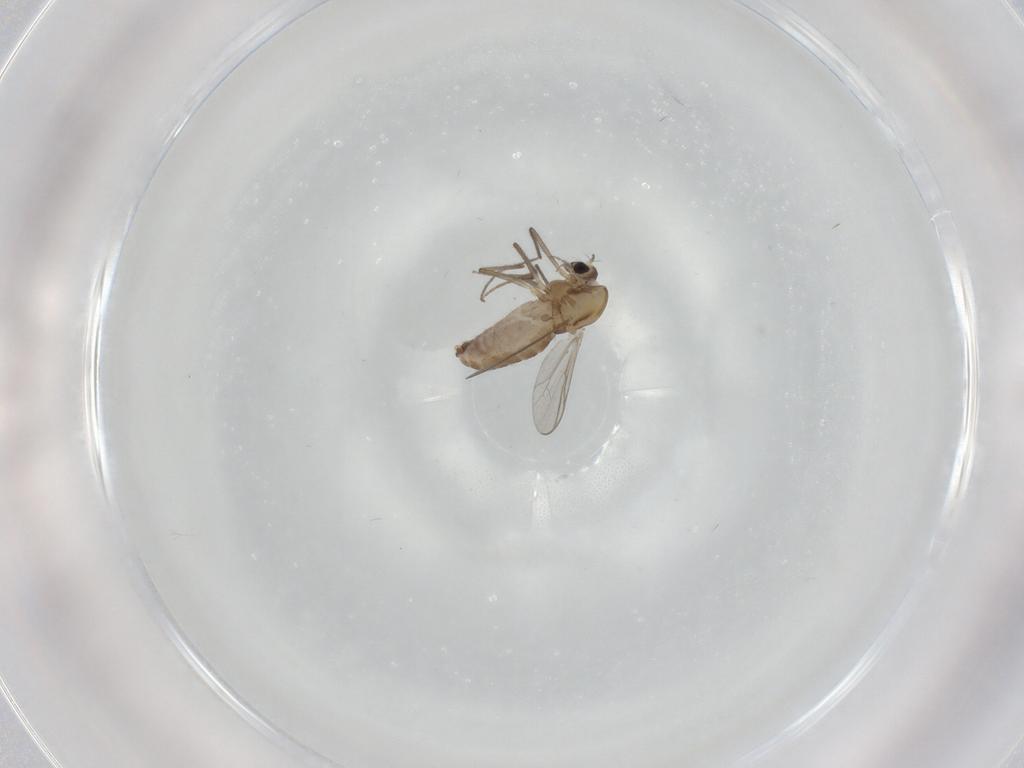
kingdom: Animalia
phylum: Arthropoda
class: Insecta
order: Diptera
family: Chironomidae
